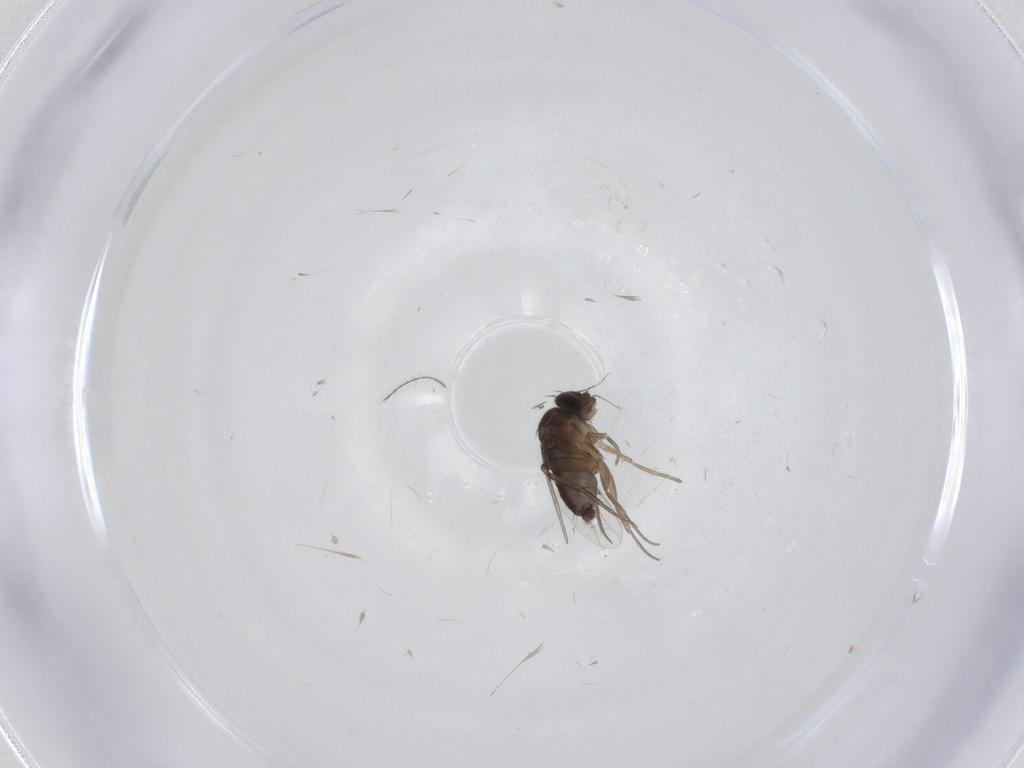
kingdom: Animalia
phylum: Arthropoda
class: Insecta
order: Diptera
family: Phoridae
